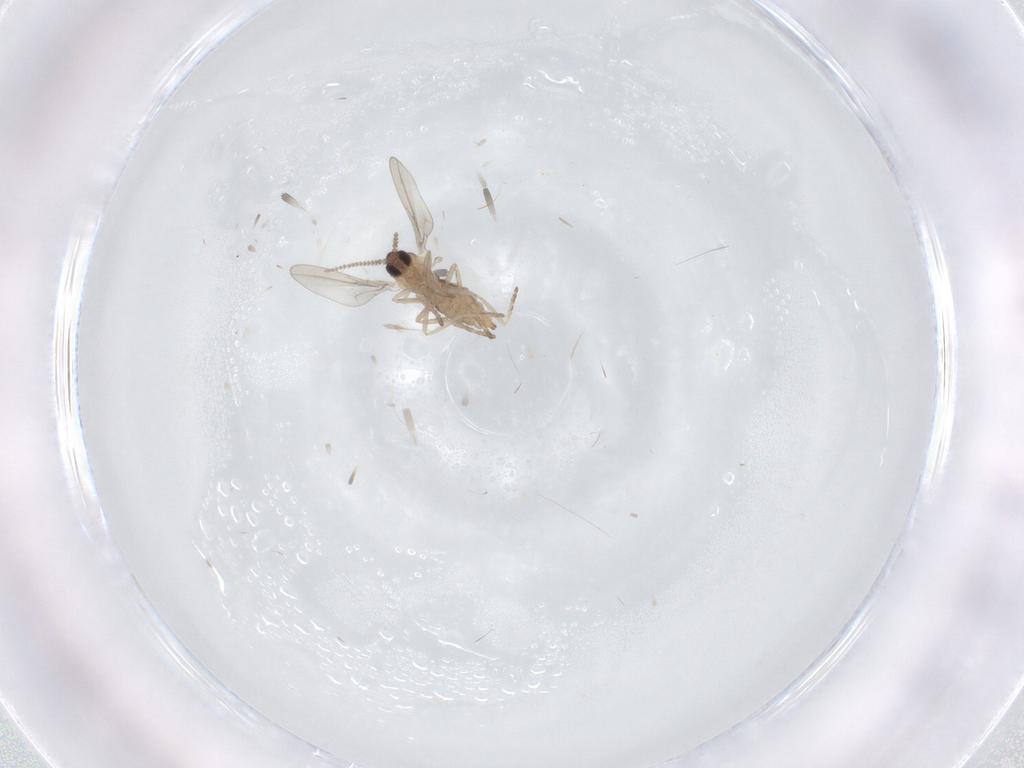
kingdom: Animalia
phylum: Arthropoda
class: Insecta
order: Diptera
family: Cecidomyiidae
